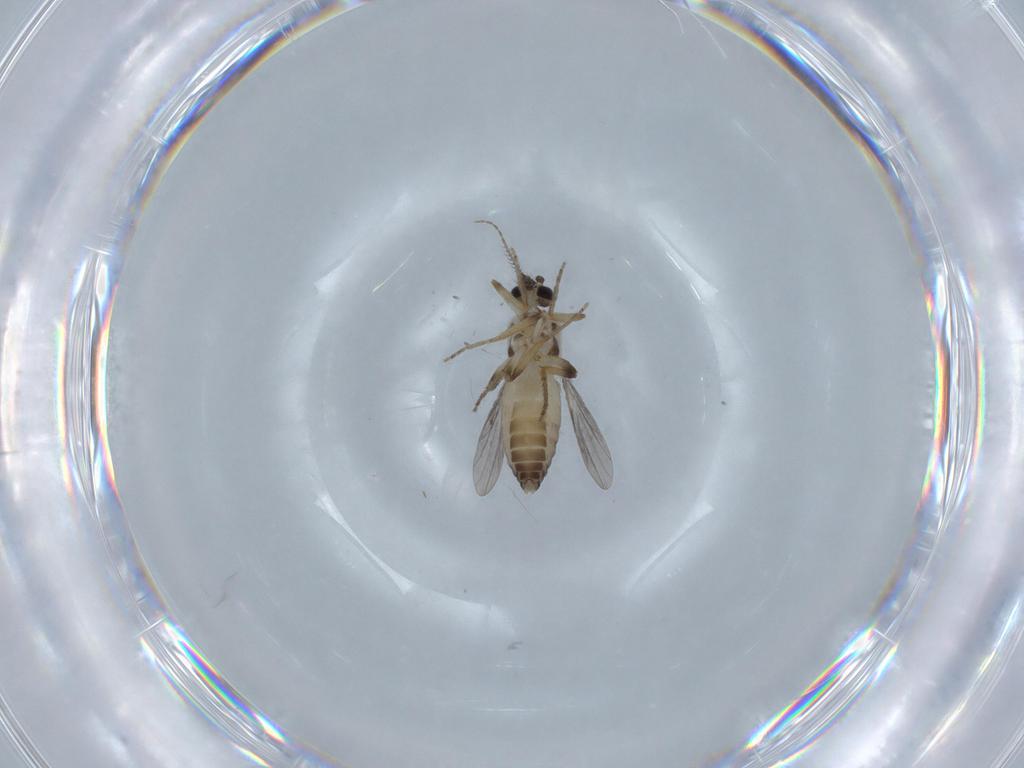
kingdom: Animalia
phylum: Arthropoda
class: Insecta
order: Diptera
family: Ceratopogonidae
